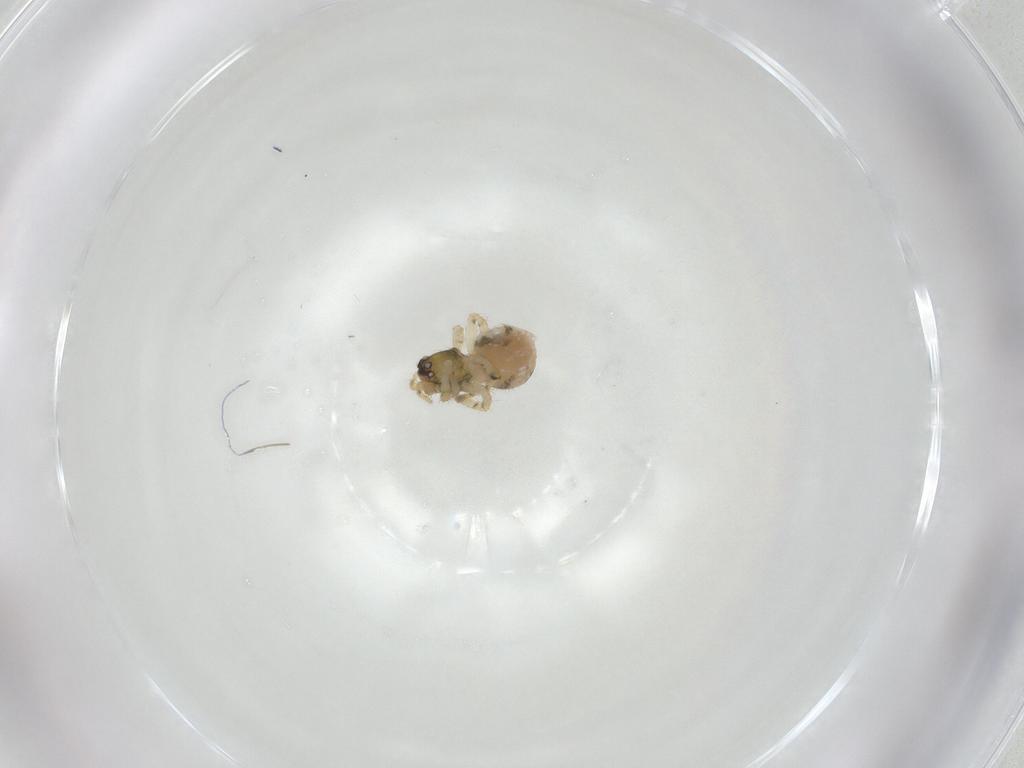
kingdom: Animalia
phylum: Arthropoda
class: Arachnida
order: Araneae
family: Theridiidae
